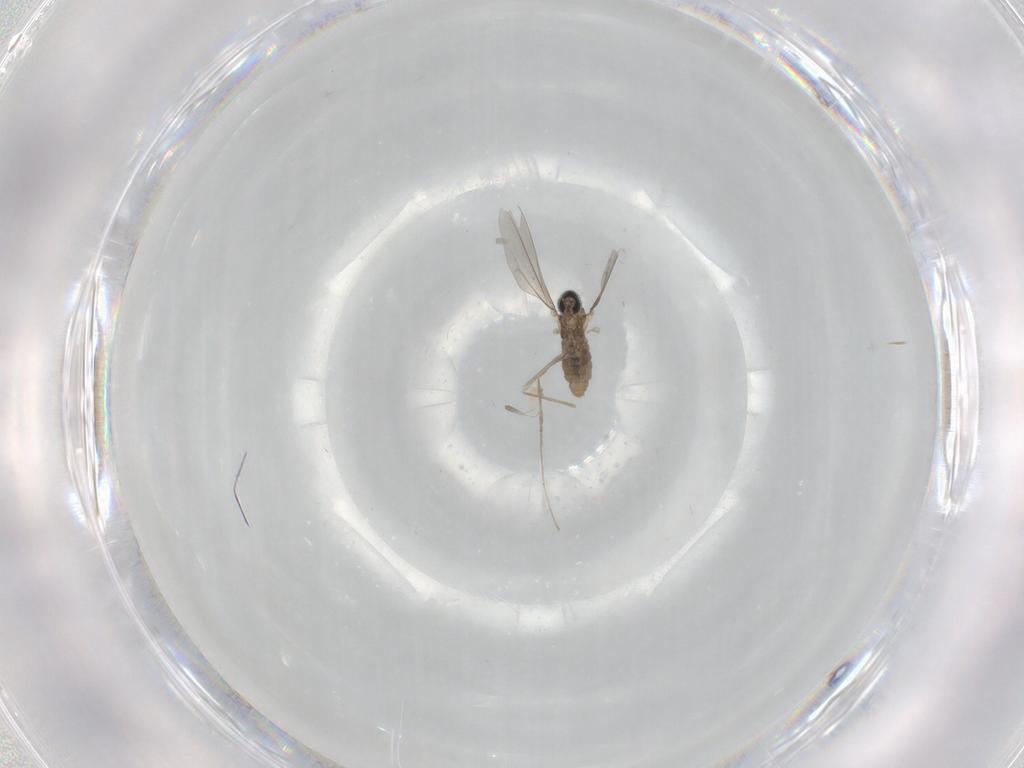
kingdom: Animalia
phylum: Arthropoda
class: Insecta
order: Diptera
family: Cecidomyiidae
